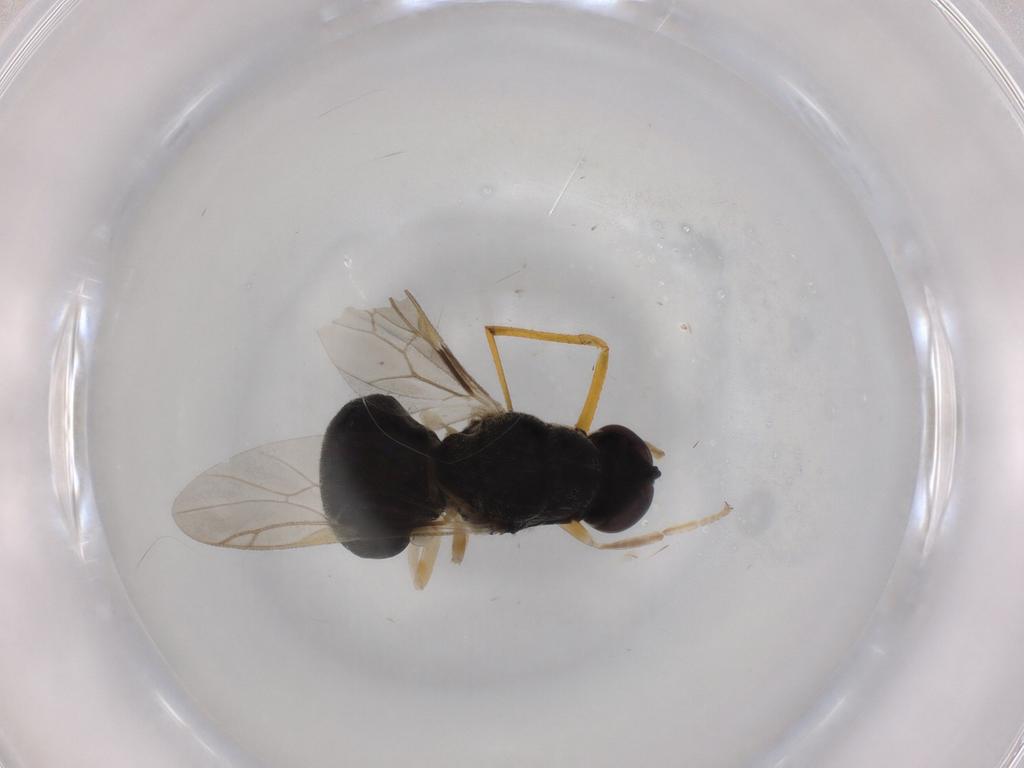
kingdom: Animalia
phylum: Arthropoda
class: Insecta
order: Diptera
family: Stratiomyidae
